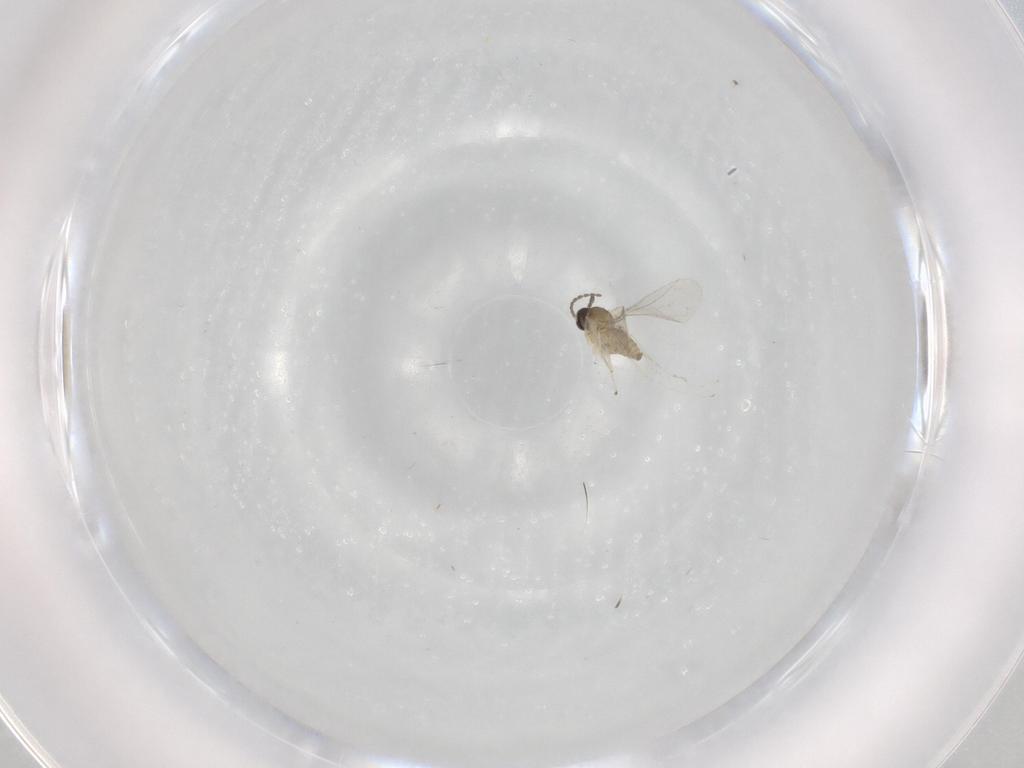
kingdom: Animalia
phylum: Arthropoda
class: Insecta
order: Diptera
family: Cecidomyiidae
